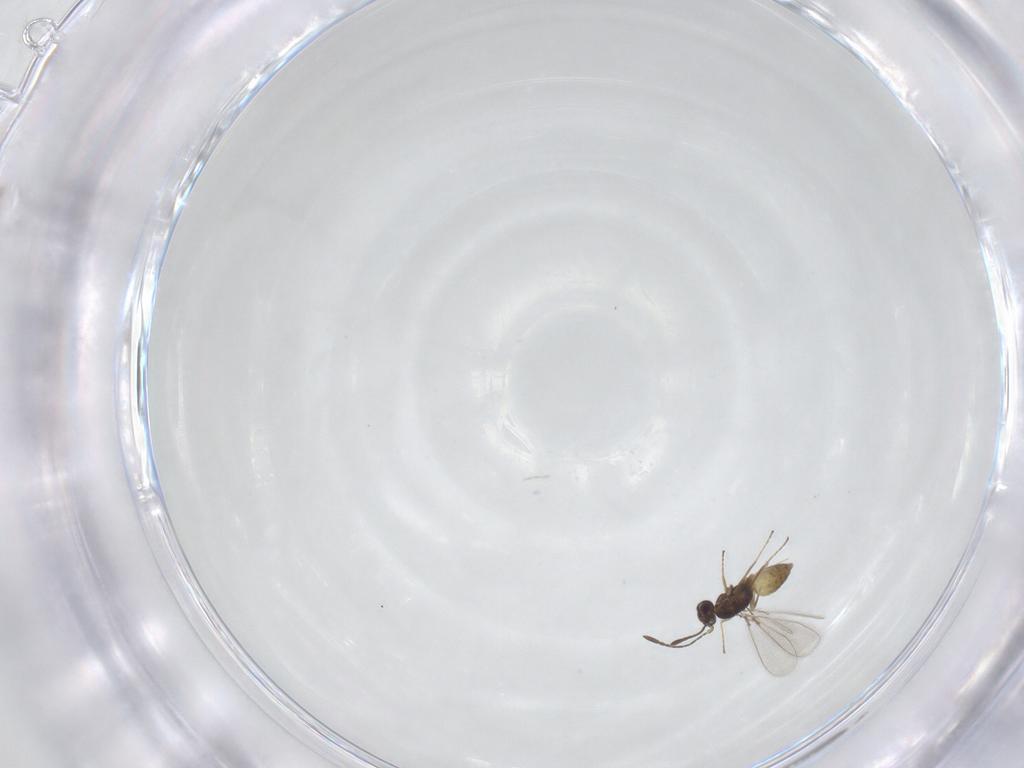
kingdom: Animalia
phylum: Arthropoda
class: Insecta
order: Hymenoptera
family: Mymaridae
